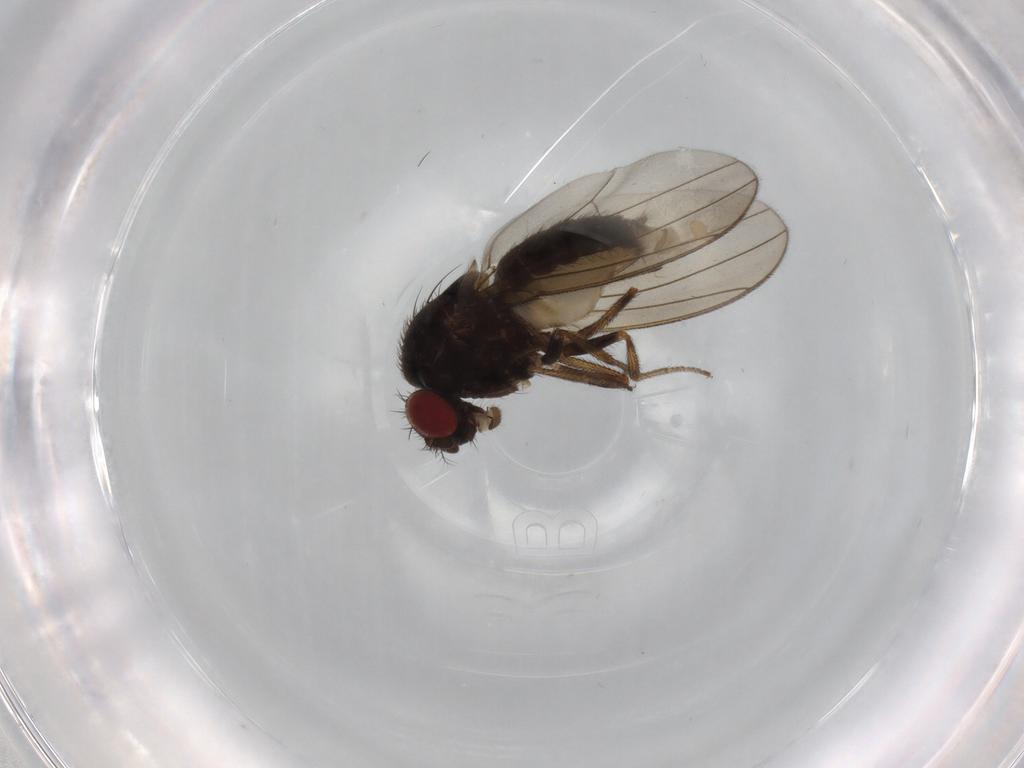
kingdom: Animalia
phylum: Arthropoda
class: Insecta
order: Diptera
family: Drosophilidae
